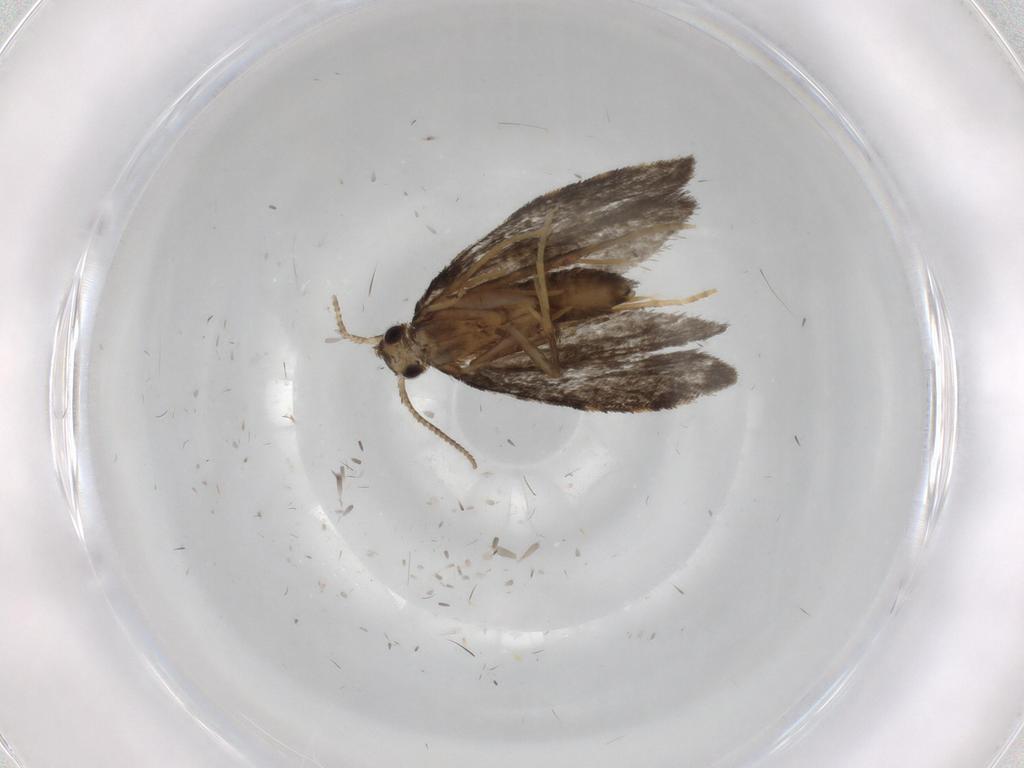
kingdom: Animalia
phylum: Arthropoda
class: Insecta
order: Lepidoptera
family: Psychidae
